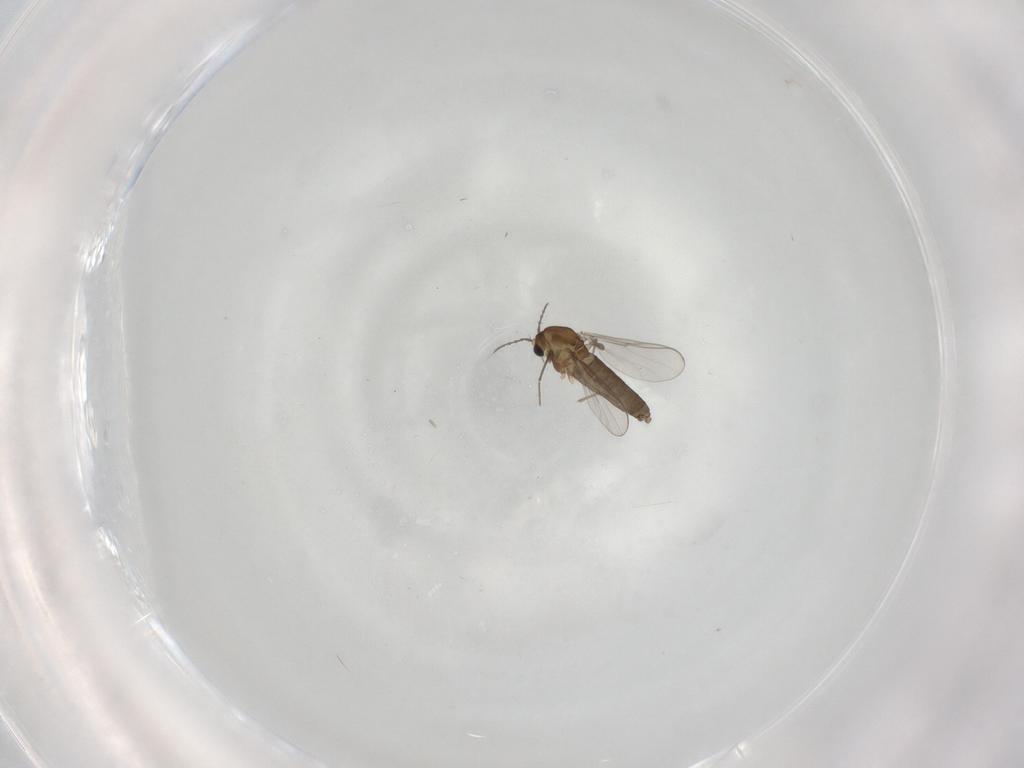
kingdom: Animalia
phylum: Arthropoda
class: Insecta
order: Diptera
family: Chironomidae
